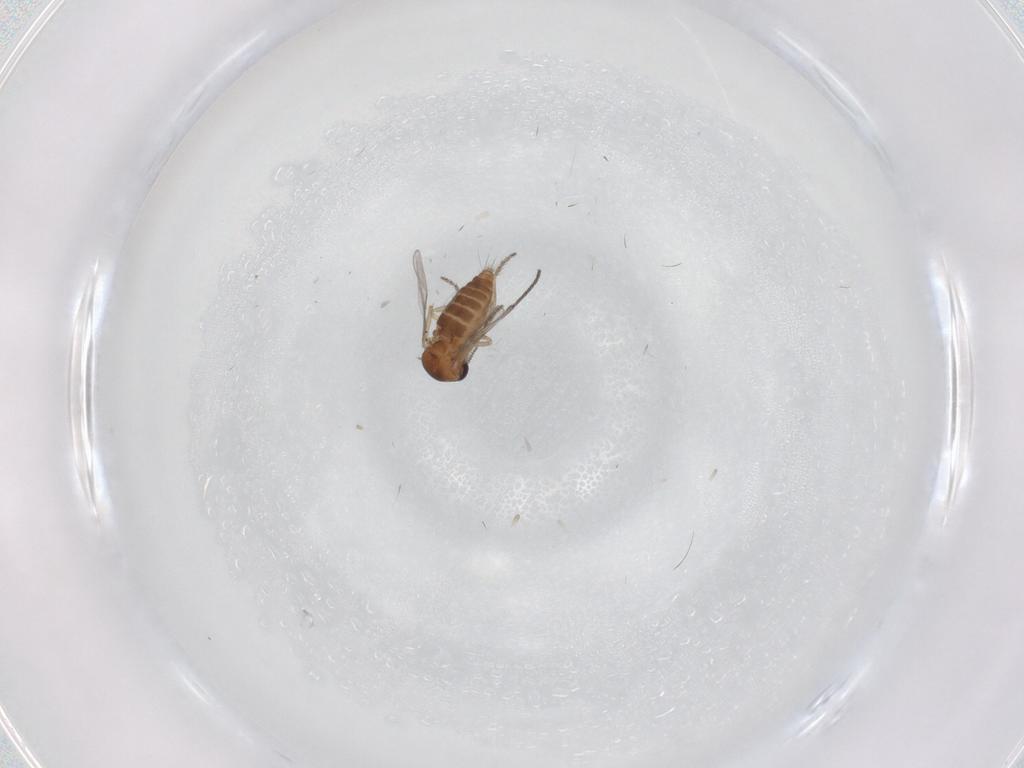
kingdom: Animalia
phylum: Arthropoda
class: Insecta
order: Diptera
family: Ceratopogonidae
